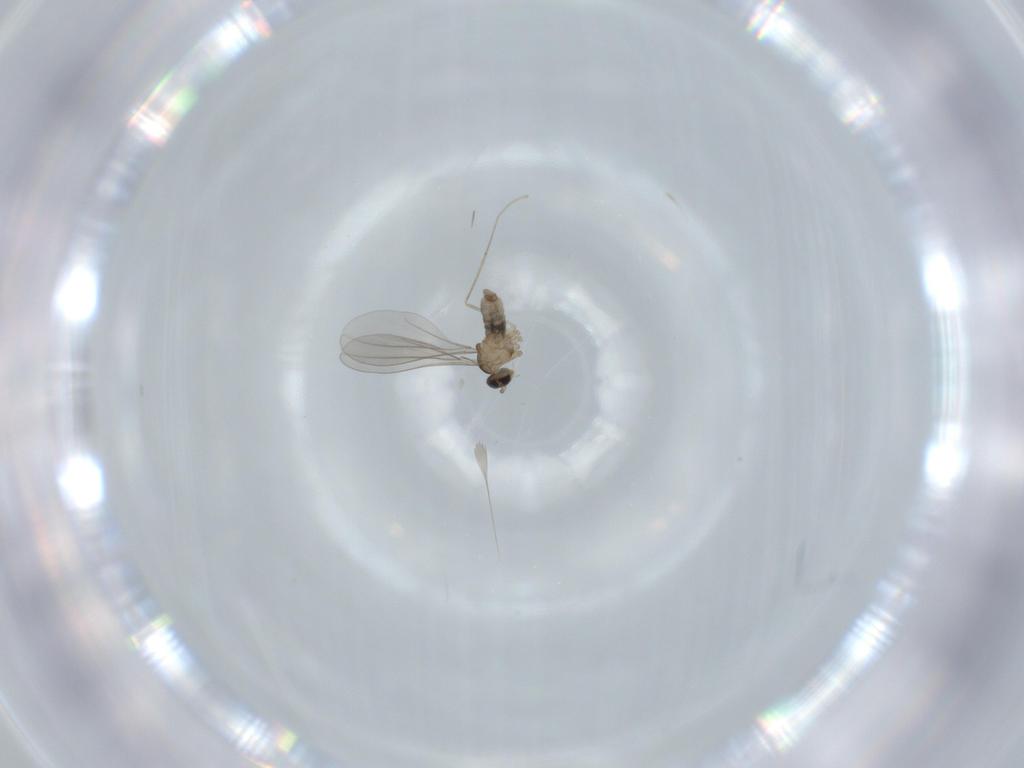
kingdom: Animalia
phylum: Arthropoda
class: Insecta
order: Diptera
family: Cecidomyiidae
